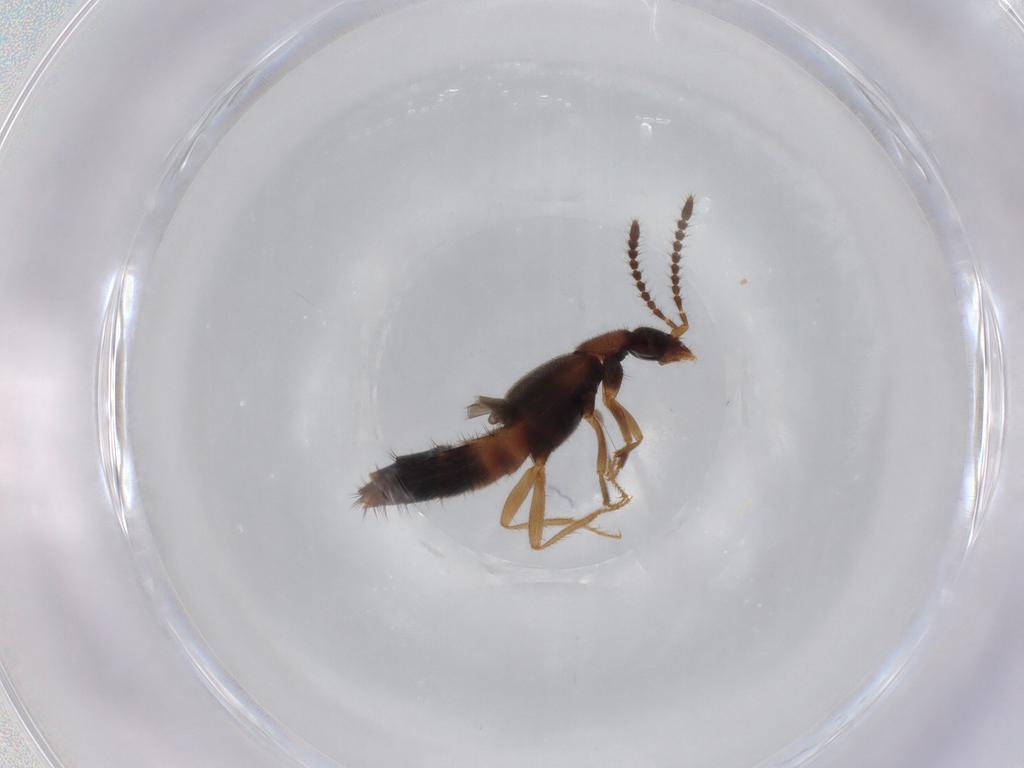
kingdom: Animalia
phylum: Arthropoda
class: Insecta
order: Coleoptera
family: Staphylinidae
